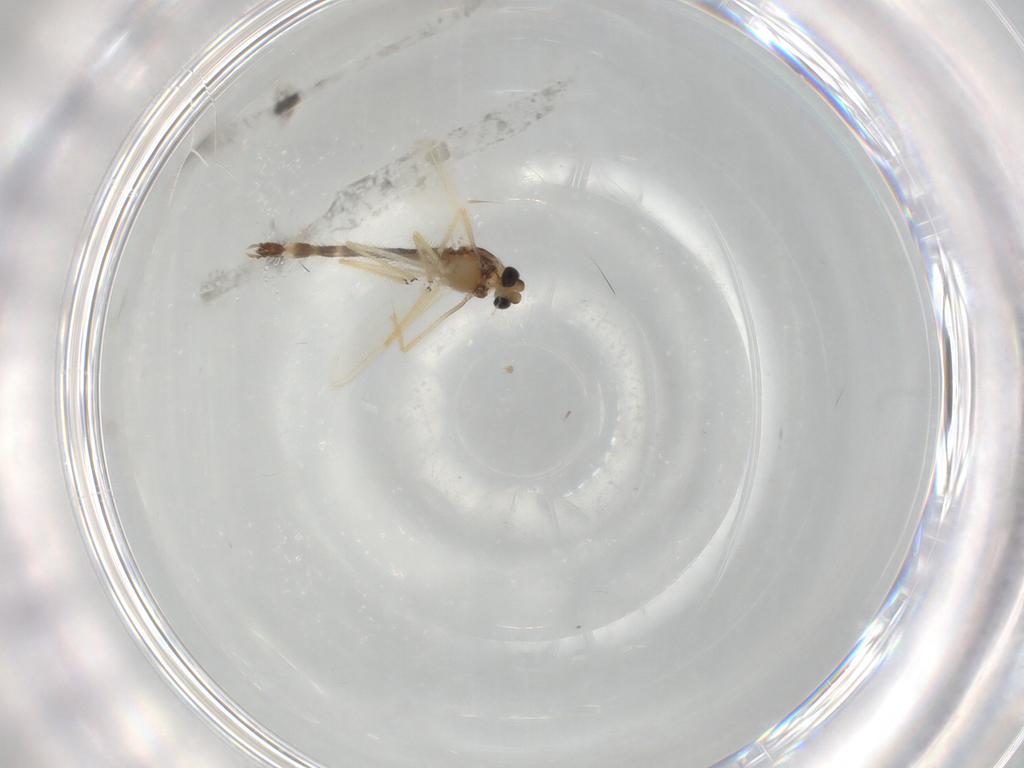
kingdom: Animalia
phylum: Arthropoda
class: Insecta
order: Diptera
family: Chironomidae
